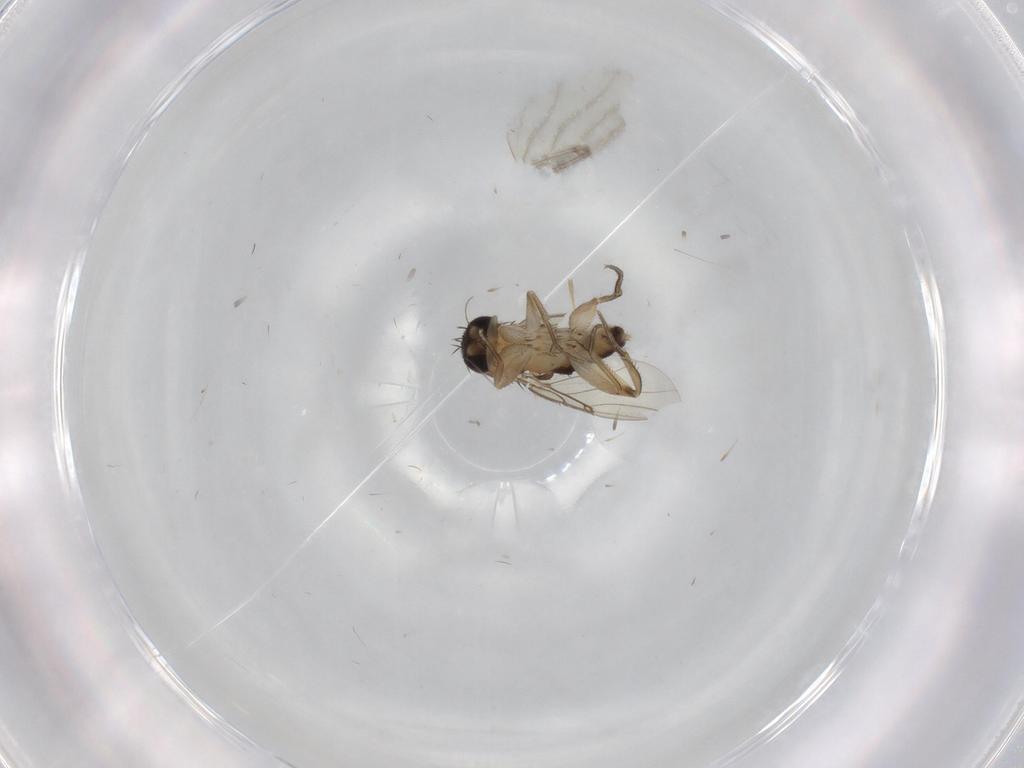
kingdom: Animalia
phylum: Arthropoda
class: Insecta
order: Diptera
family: Phoridae
